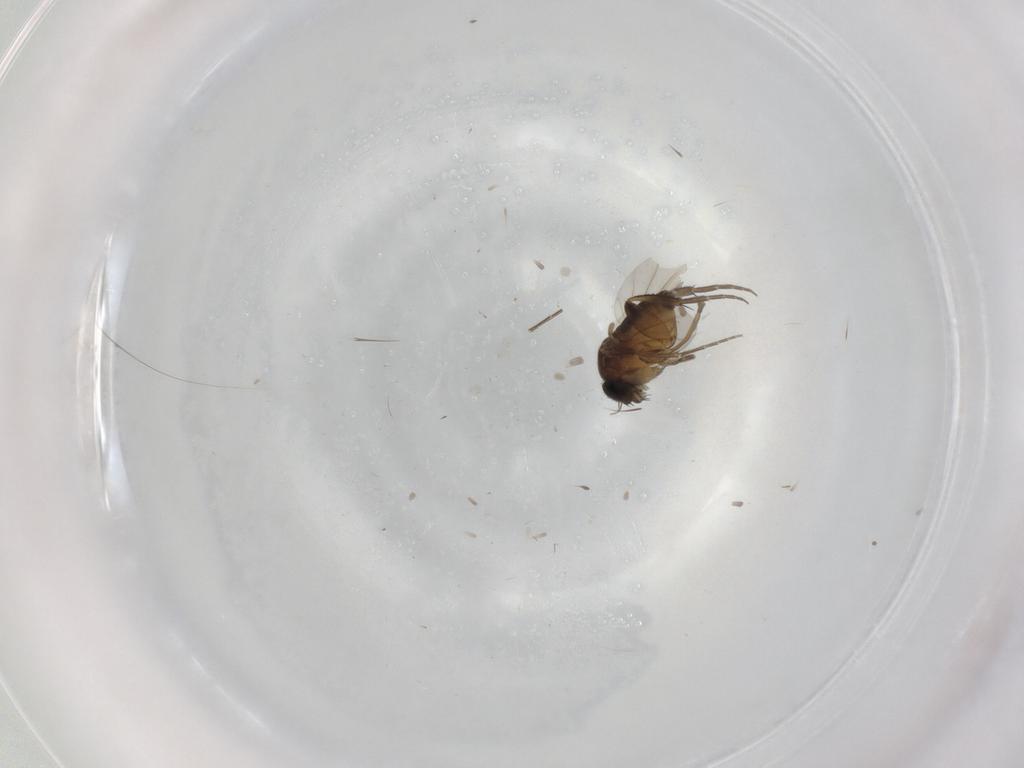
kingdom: Animalia
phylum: Arthropoda
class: Insecta
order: Diptera
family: Phoridae
